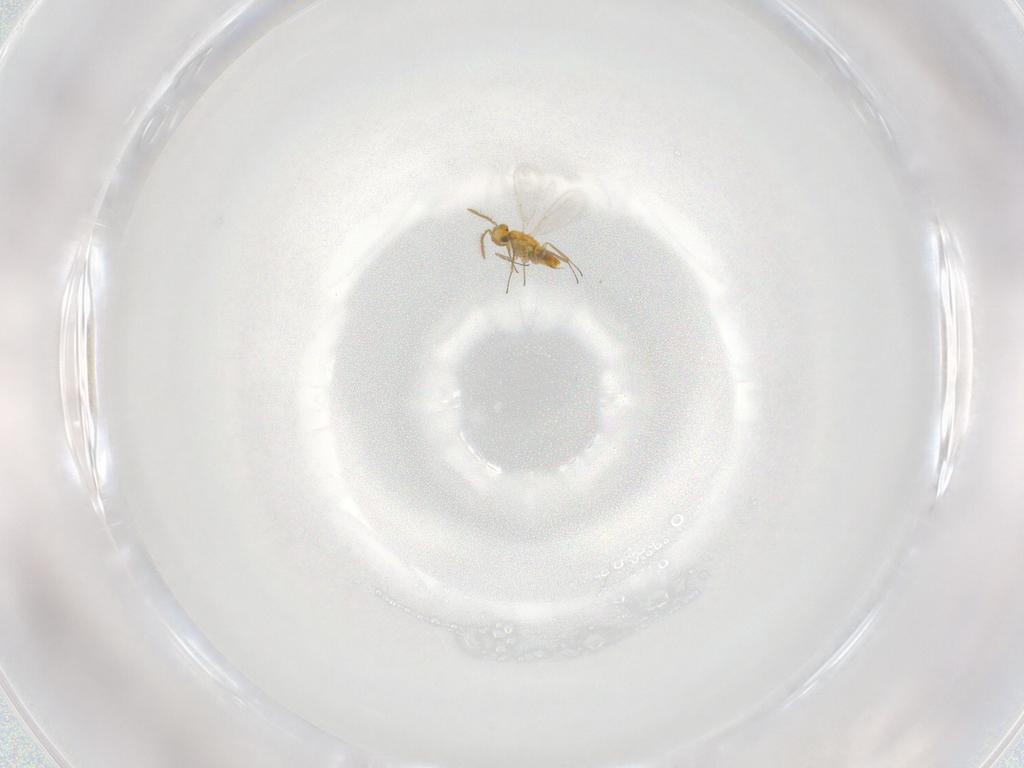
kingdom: Animalia
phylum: Arthropoda
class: Insecta
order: Hymenoptera
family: Aphelinidae
